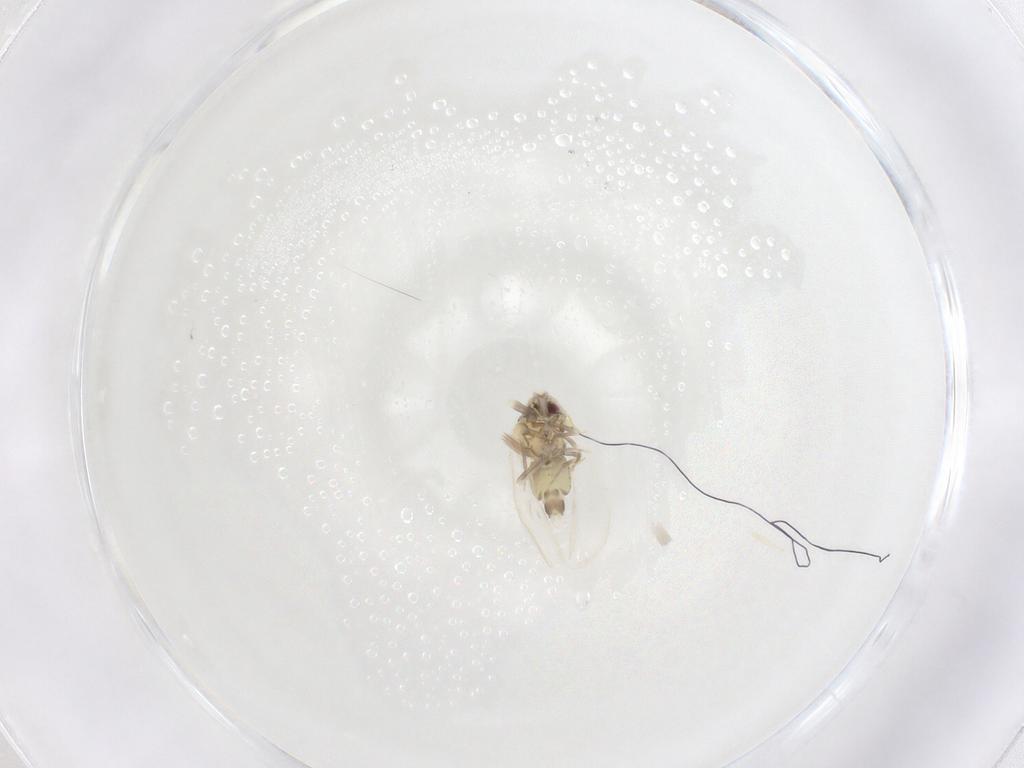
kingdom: Animalia
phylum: Arthropoda
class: Insecta
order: Hemiptera
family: Aleyrodidae
